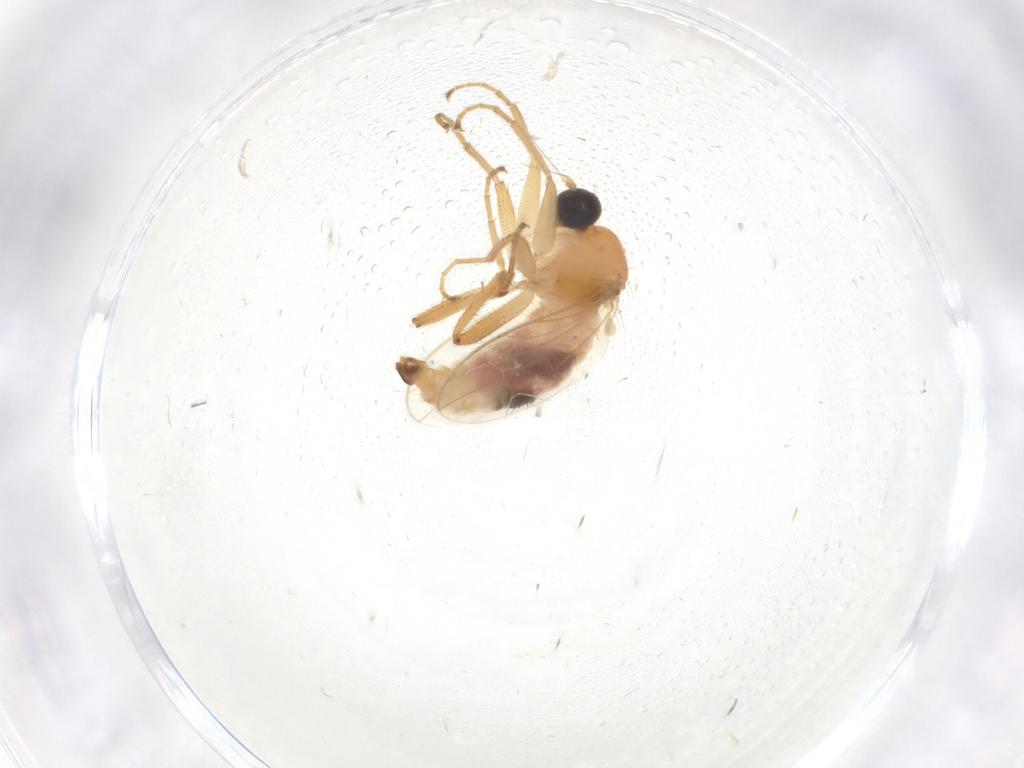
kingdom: Animalia
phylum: Arthropoda
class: Insecta
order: Diptera
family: Hybotidae
